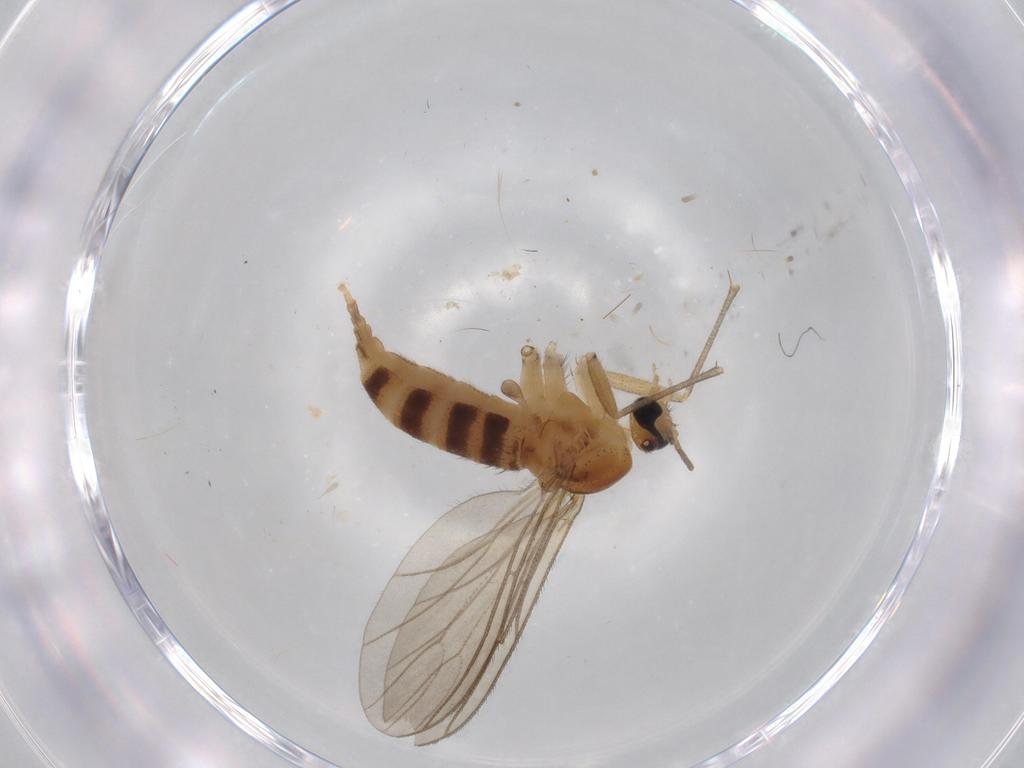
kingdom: Animalia
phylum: Arthropoda
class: Insecta
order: Diptera
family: Sciaridae
